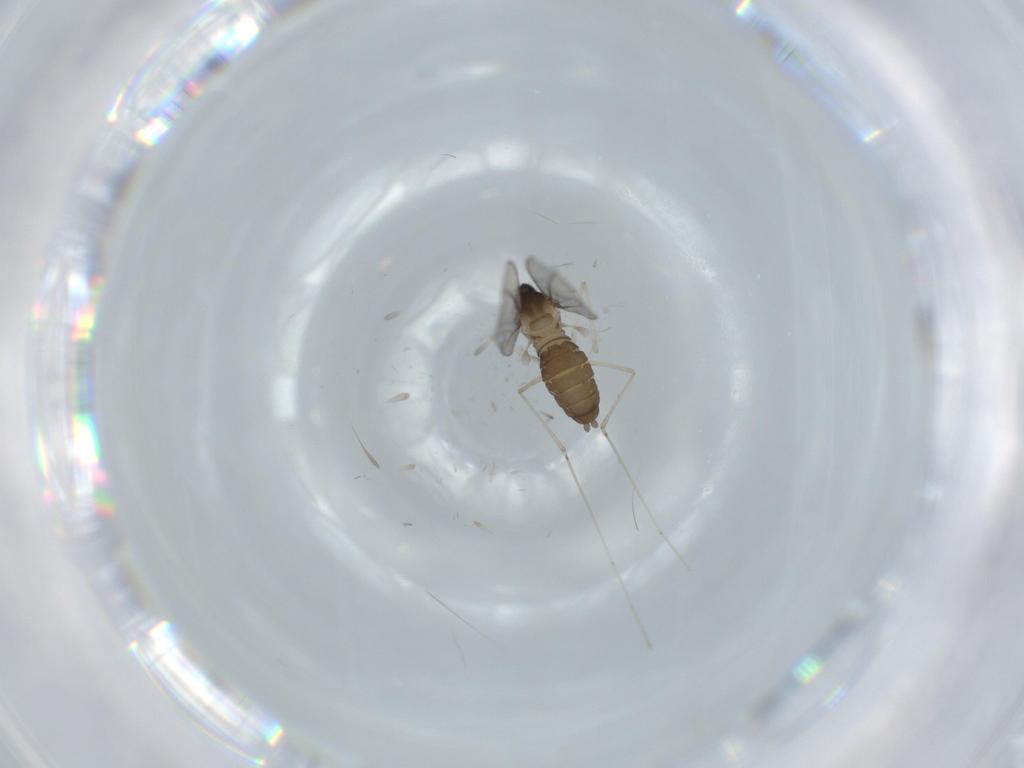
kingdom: Animalia
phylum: Arthropoda
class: Insecta
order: Diptera
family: Cecidomyiidae
